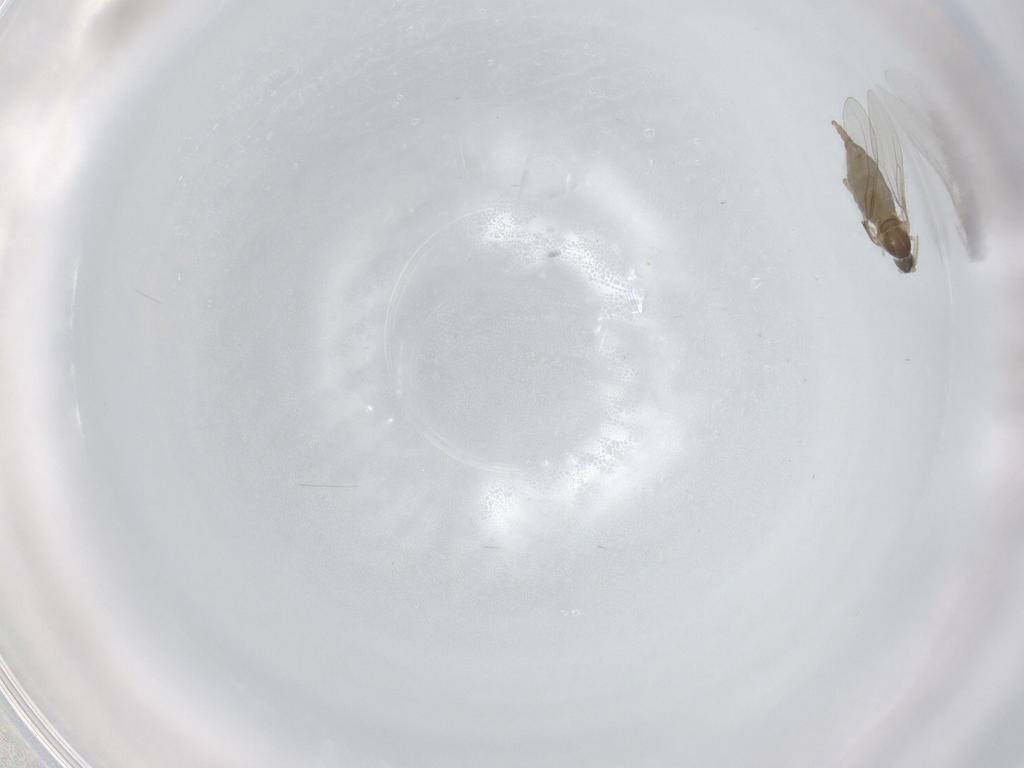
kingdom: Animalia
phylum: Arthropoda
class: Insecta
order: Diptera
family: Cecidomyiidae
